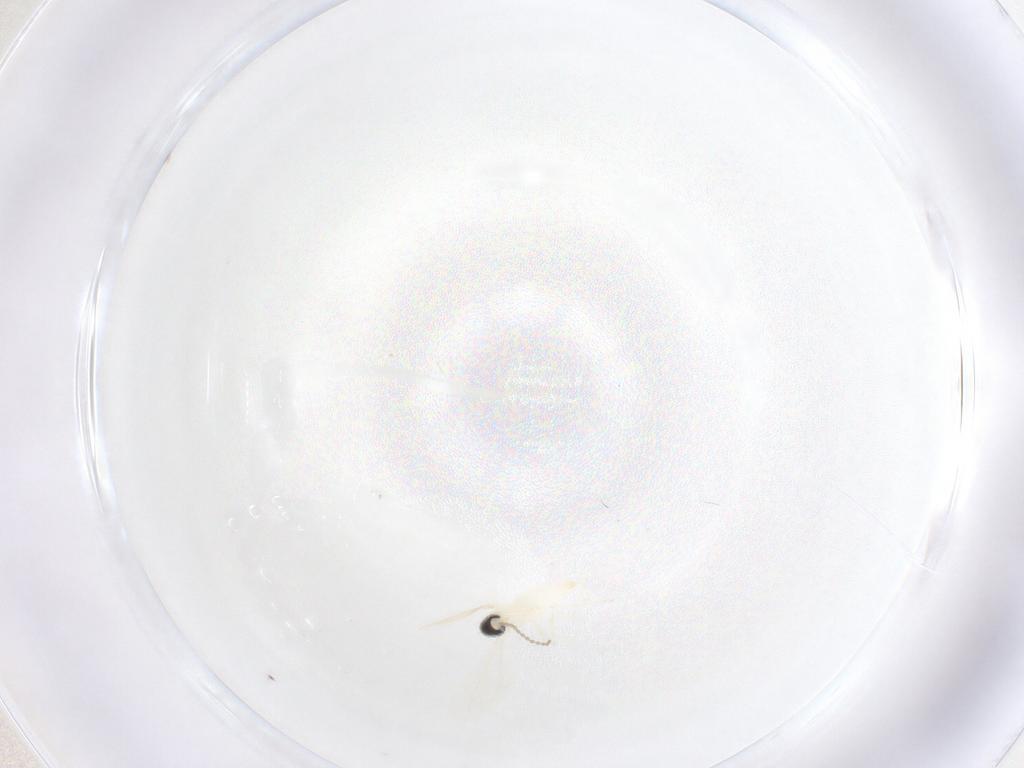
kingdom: Animalia
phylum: Arthropoda
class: Insecta
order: Diptera
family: Cecidomyiidae
